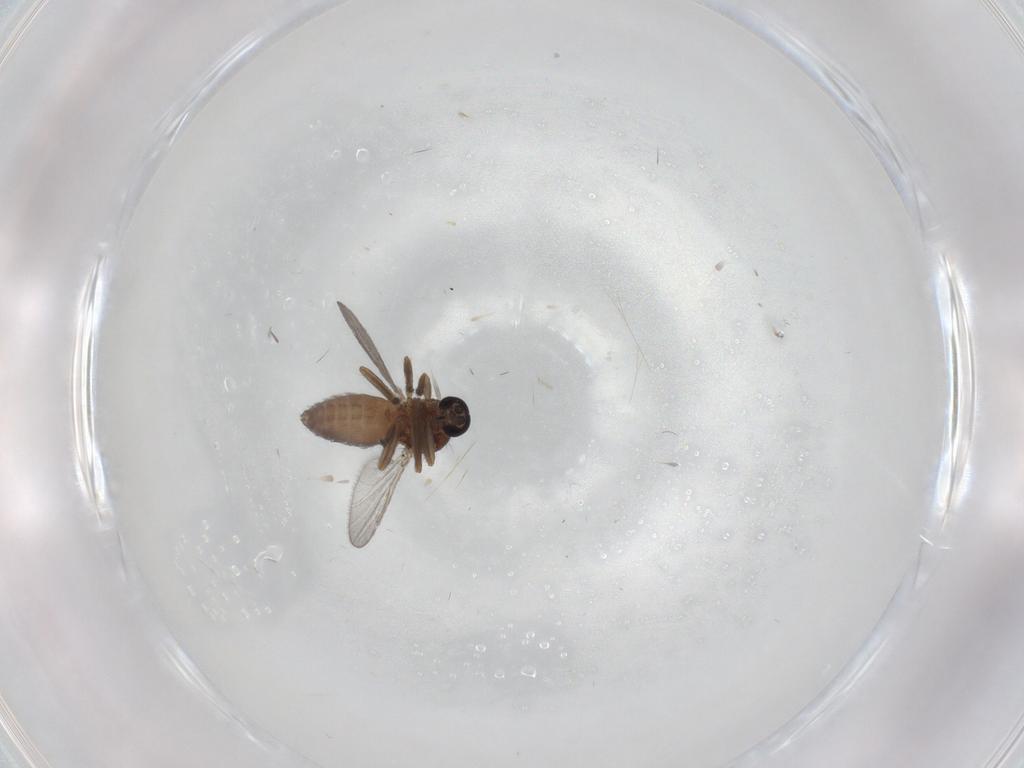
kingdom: Animalia
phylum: Arthropoda
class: Insecta
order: Diptera
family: Ceratopogonidae
